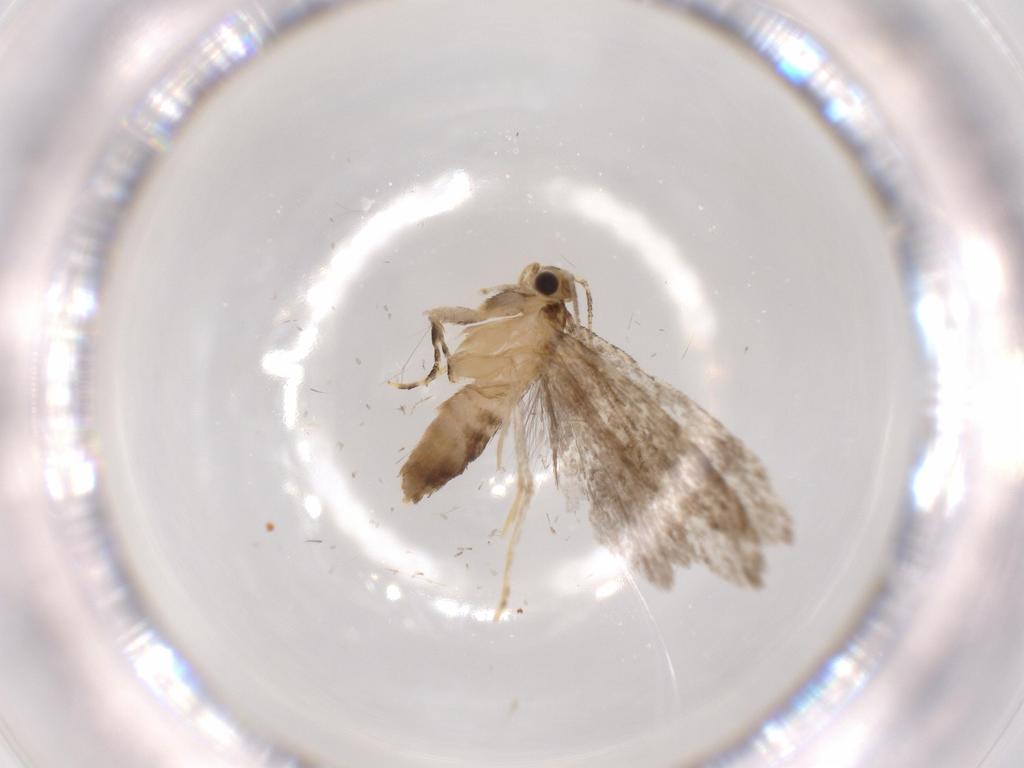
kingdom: Animalia
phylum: Arthropoda
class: Insecta
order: Lepidoptera
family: Tineidae
